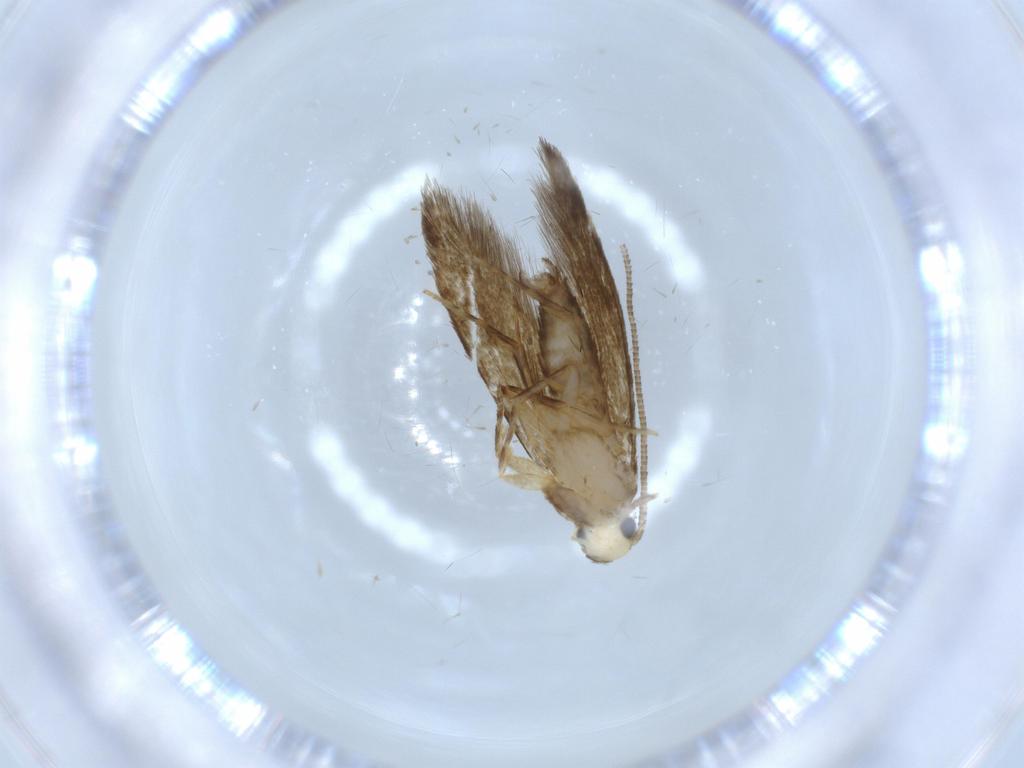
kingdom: Animalia
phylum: Arthropoda
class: Insecta
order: Lepidoptera
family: Tineidae
